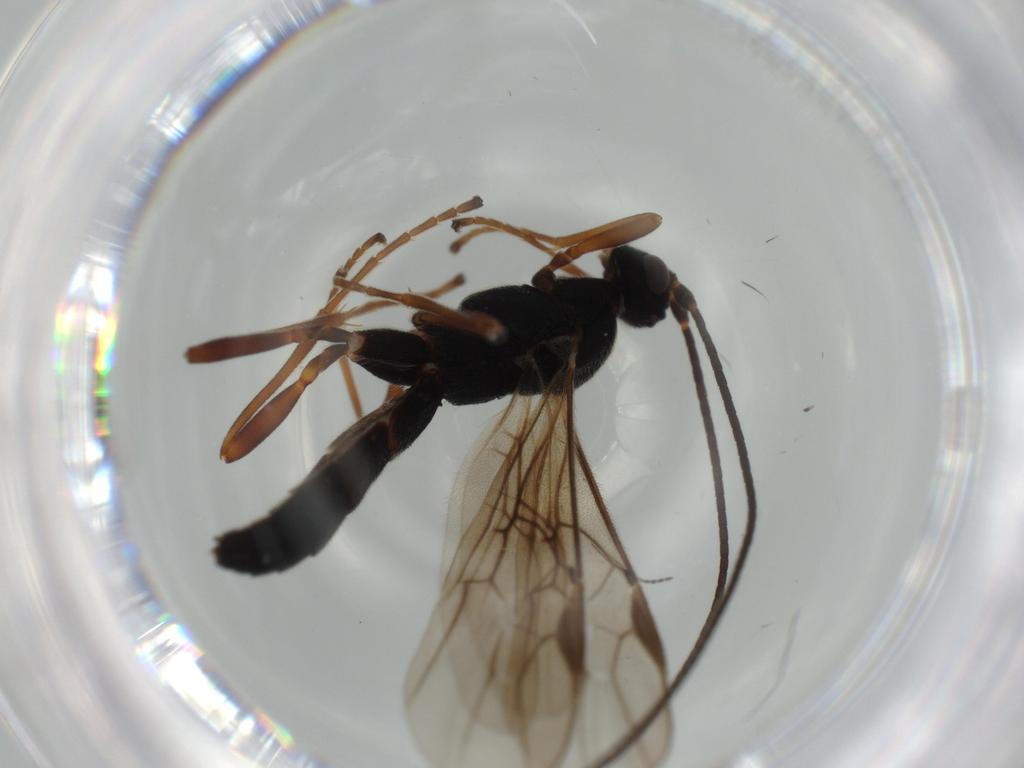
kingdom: Animalia
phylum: Arthropoda
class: Insecta
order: Hymenoptera
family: Braconidae
